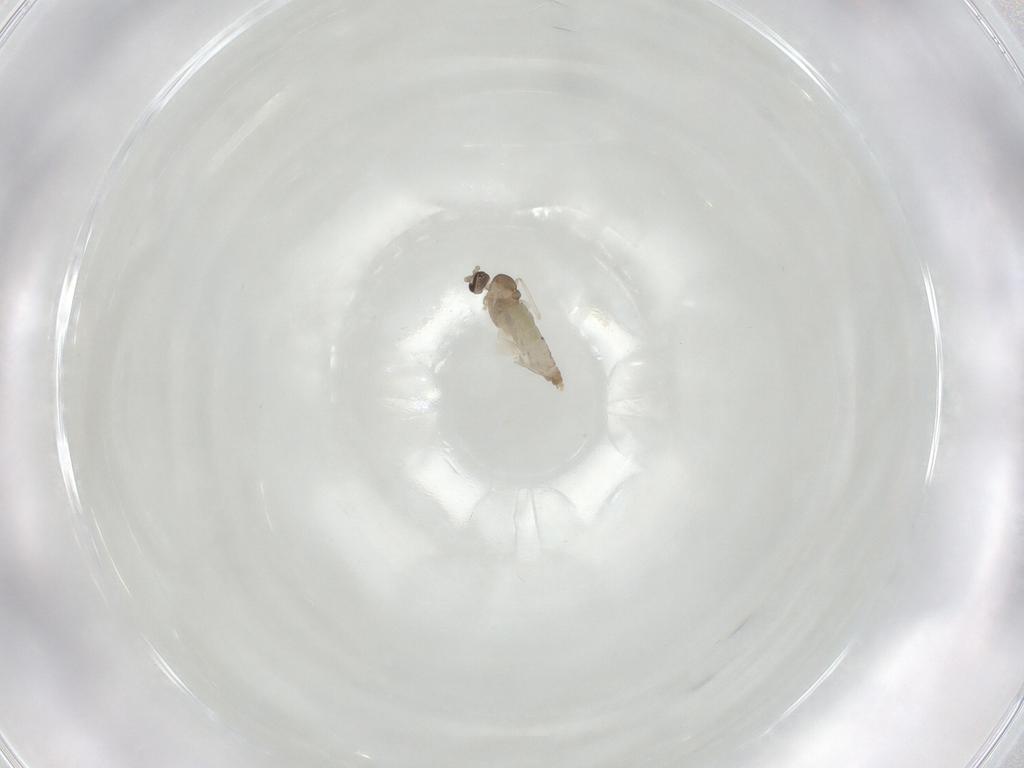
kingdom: Animalia
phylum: Arthropoda
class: Insecta
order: Diptera
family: Cecidomyiidae
